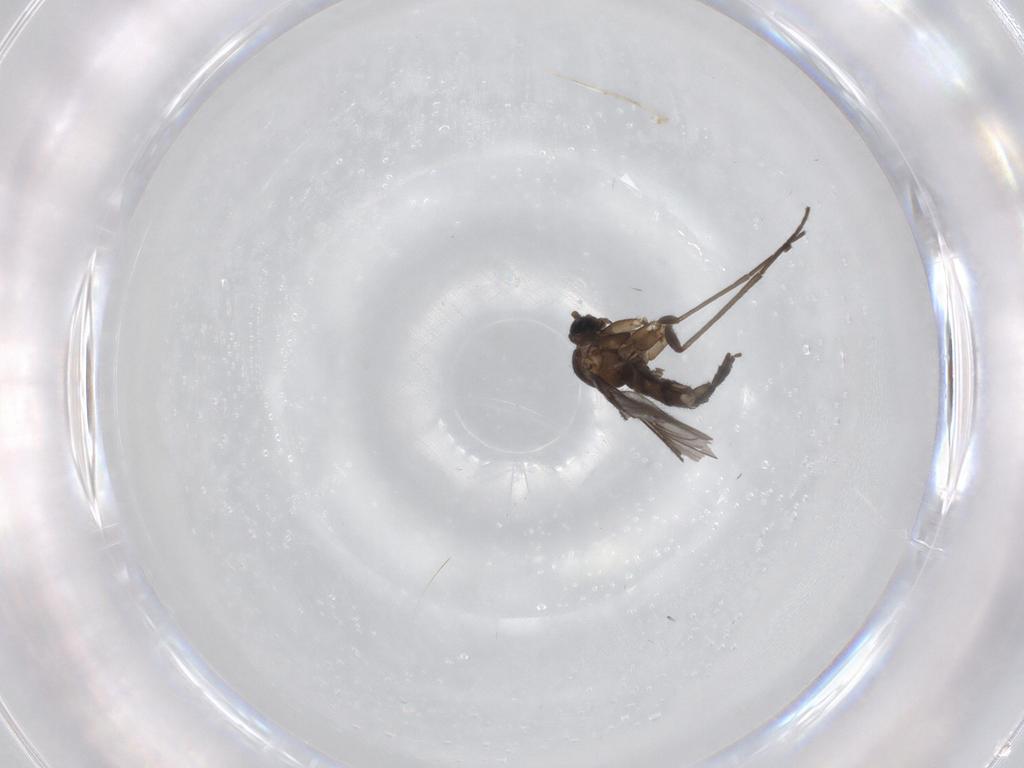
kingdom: Animalia
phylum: Arthropoda
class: Insecta
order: Diptera
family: Sciaridae
